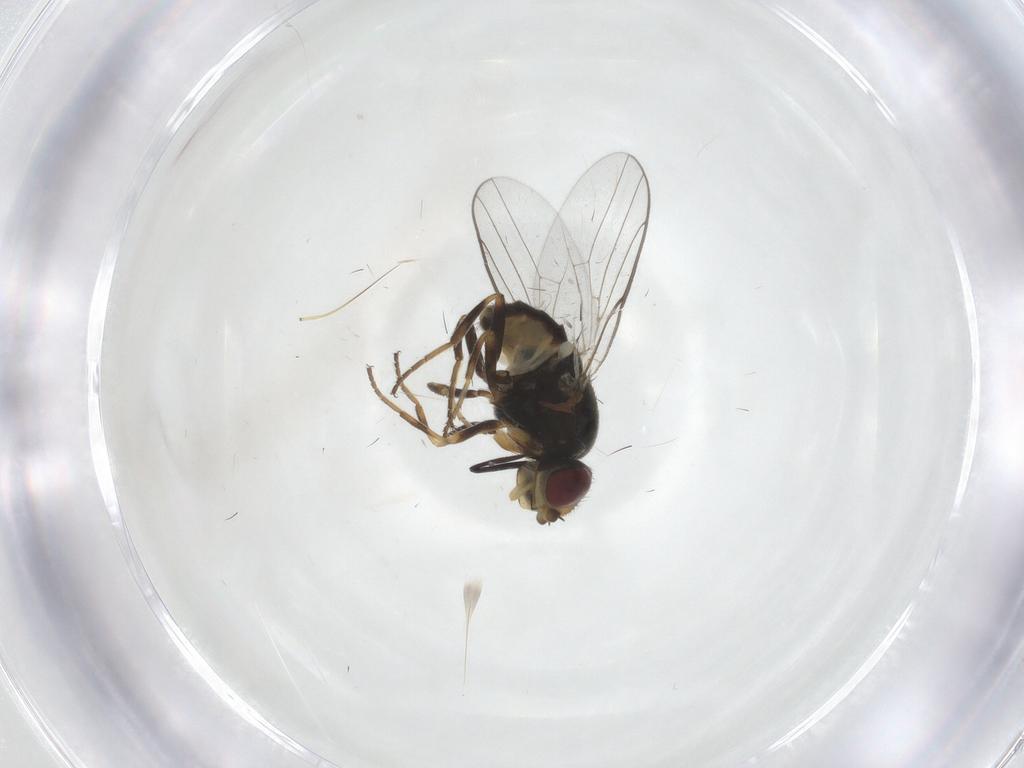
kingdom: Animalia
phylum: Arthropoda
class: Insecta
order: Diptera
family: Chloropidae
